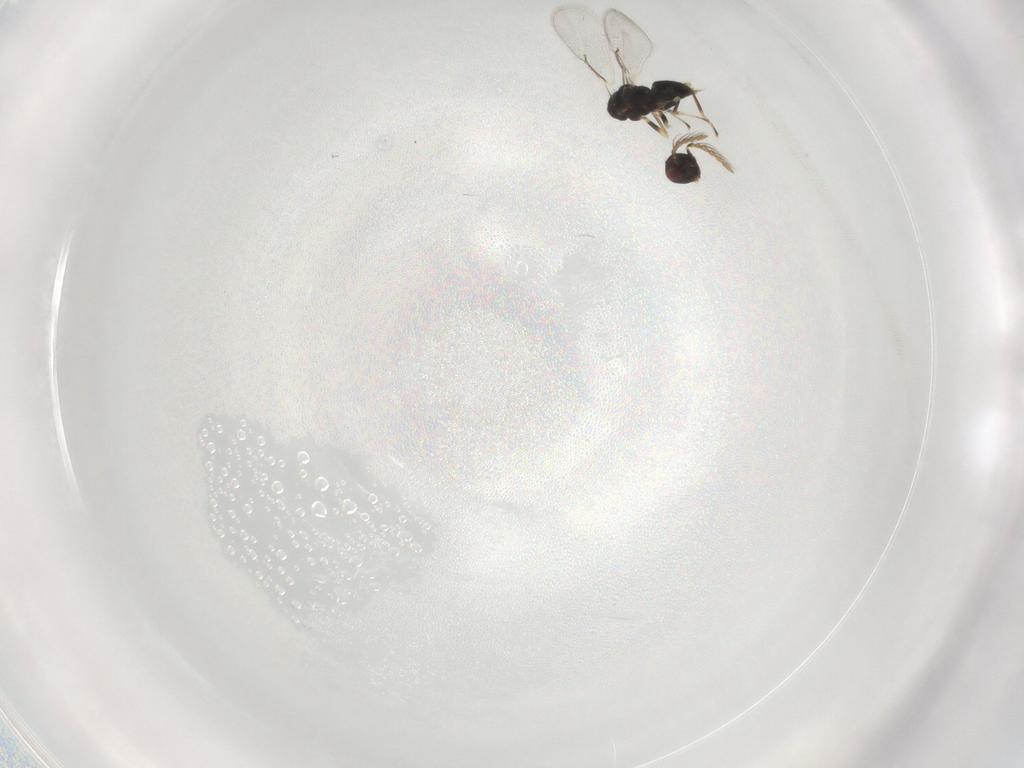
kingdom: Animalia
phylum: Arthropoda
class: Insecta
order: Hymenoptera
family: Eulophidae
